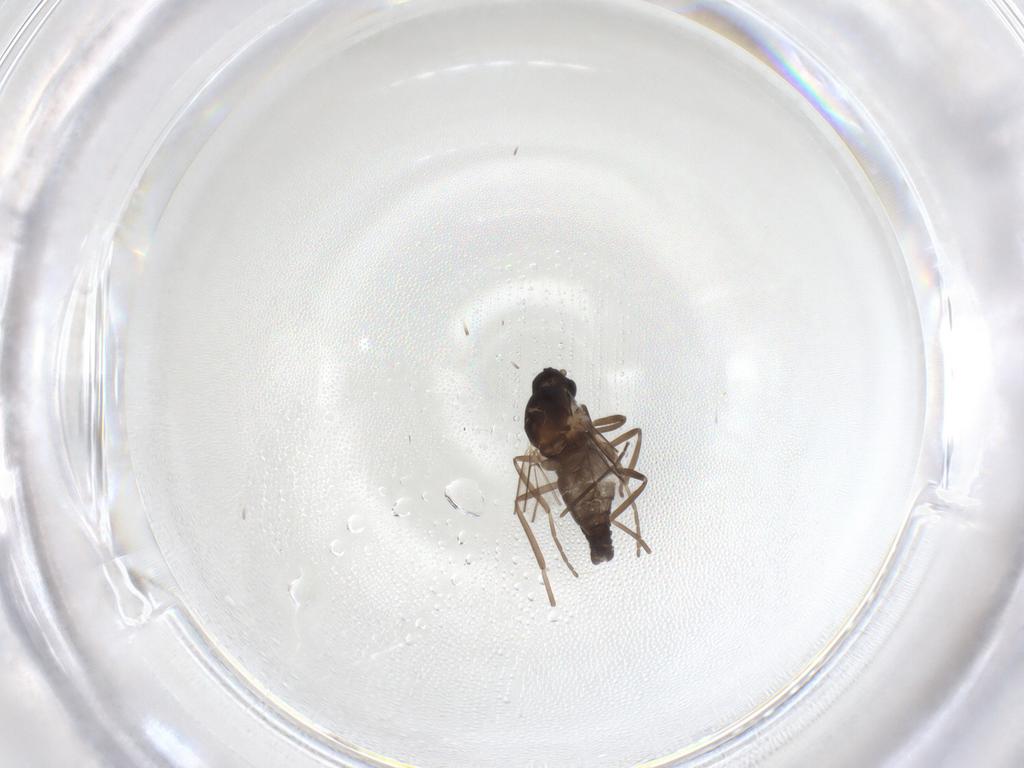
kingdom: Animalia
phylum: Arthropoda
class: Insecta
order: Diptera
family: Cecidomyiidae
